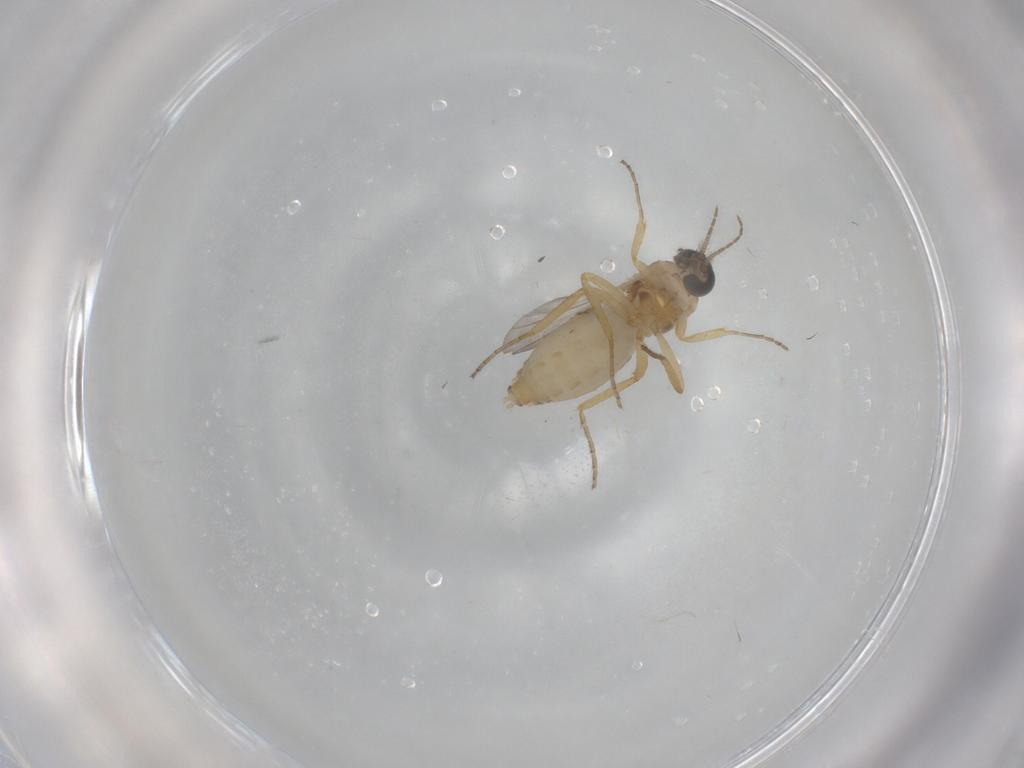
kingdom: Animalia
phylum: Arthropoda
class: Insecta
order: Diptera
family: Ceratopogonidae
